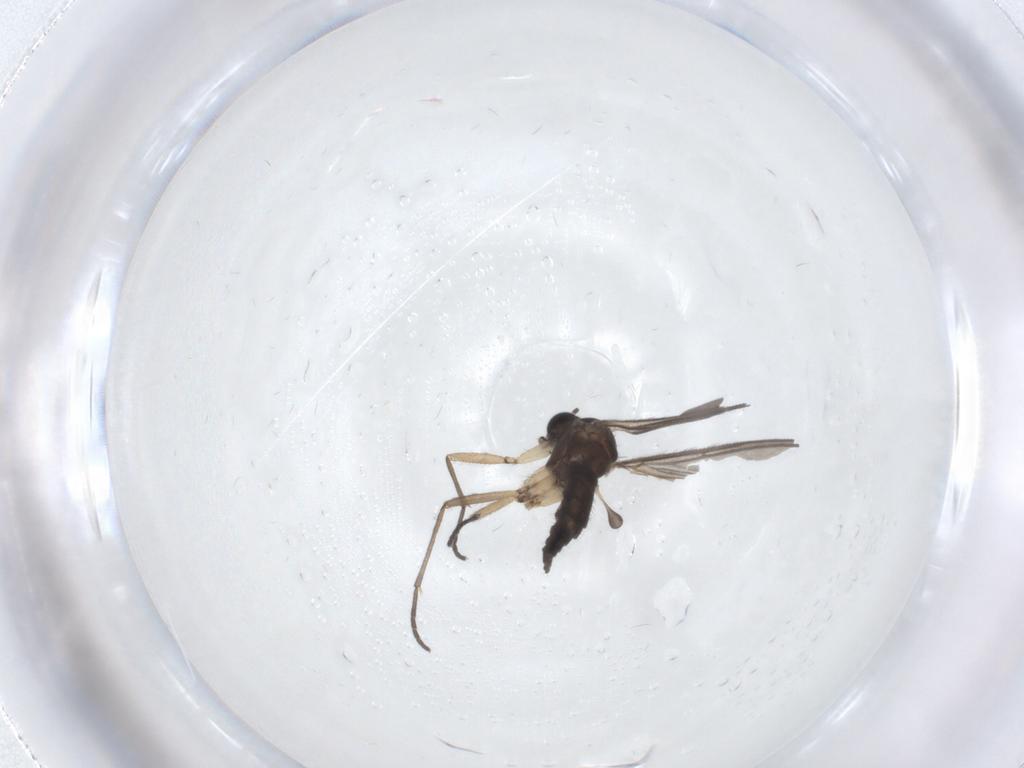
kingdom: Animalia
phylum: Arthropoda
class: Insecta
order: Diptera
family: Sciaridae
